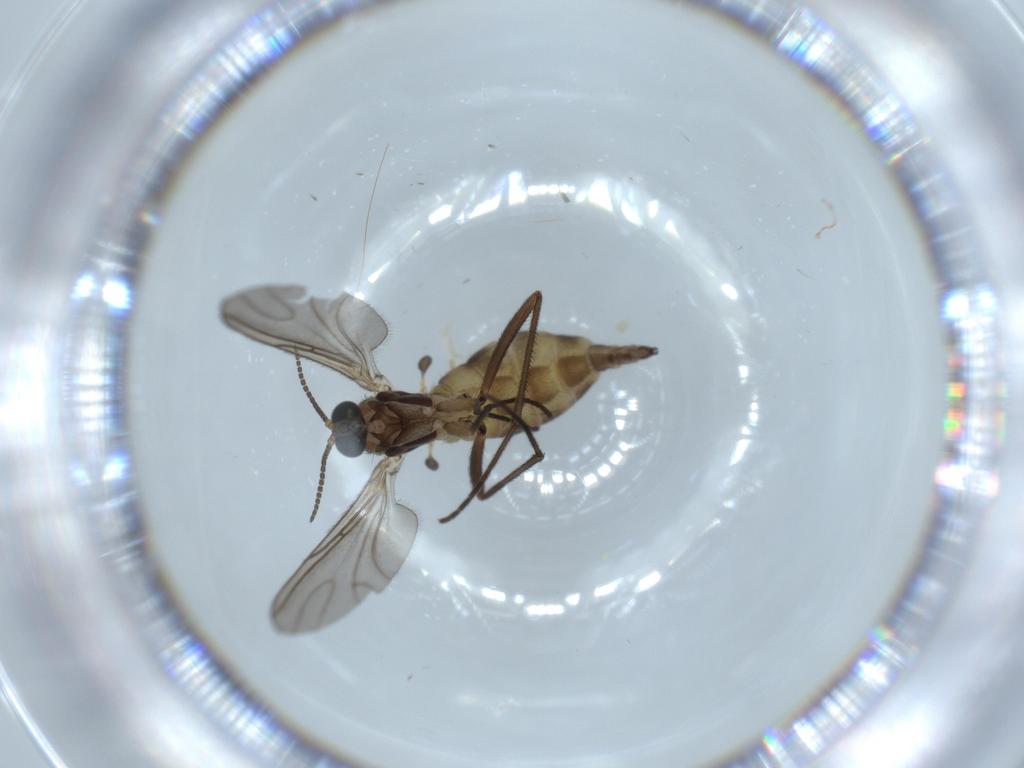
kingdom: Animalia
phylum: Arthropoda
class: Insecta
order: Diptera
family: Sciaridae
